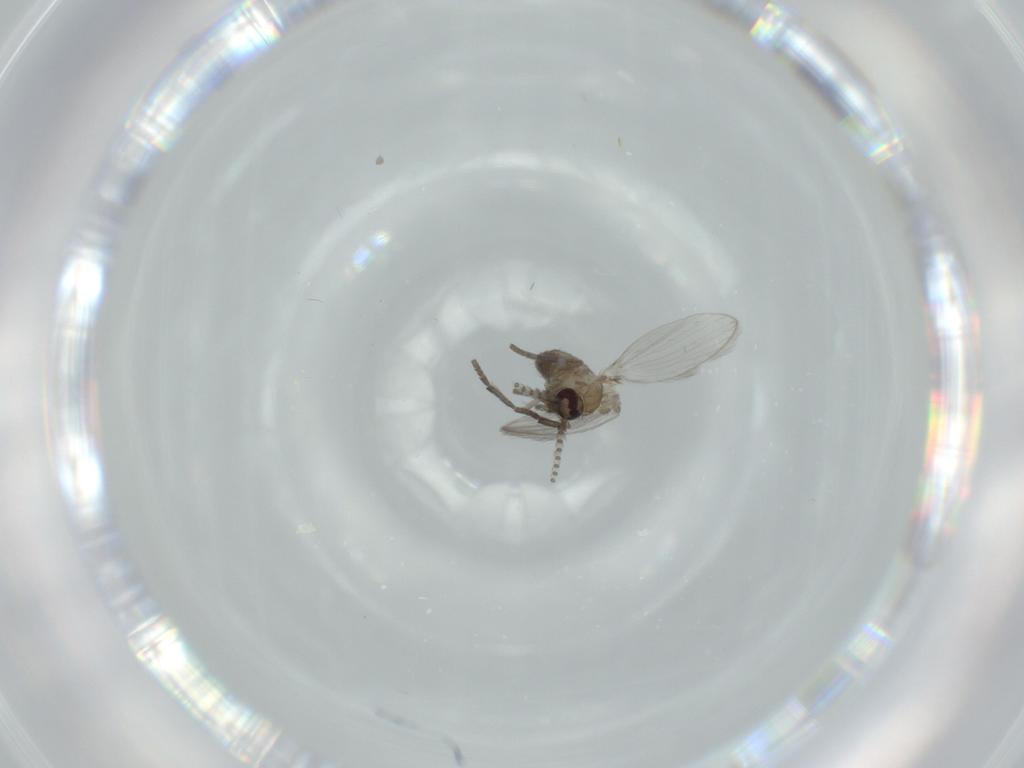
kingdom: Animalia
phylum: Arthropoda
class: Insecta
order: Diptera
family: Psychodidae
